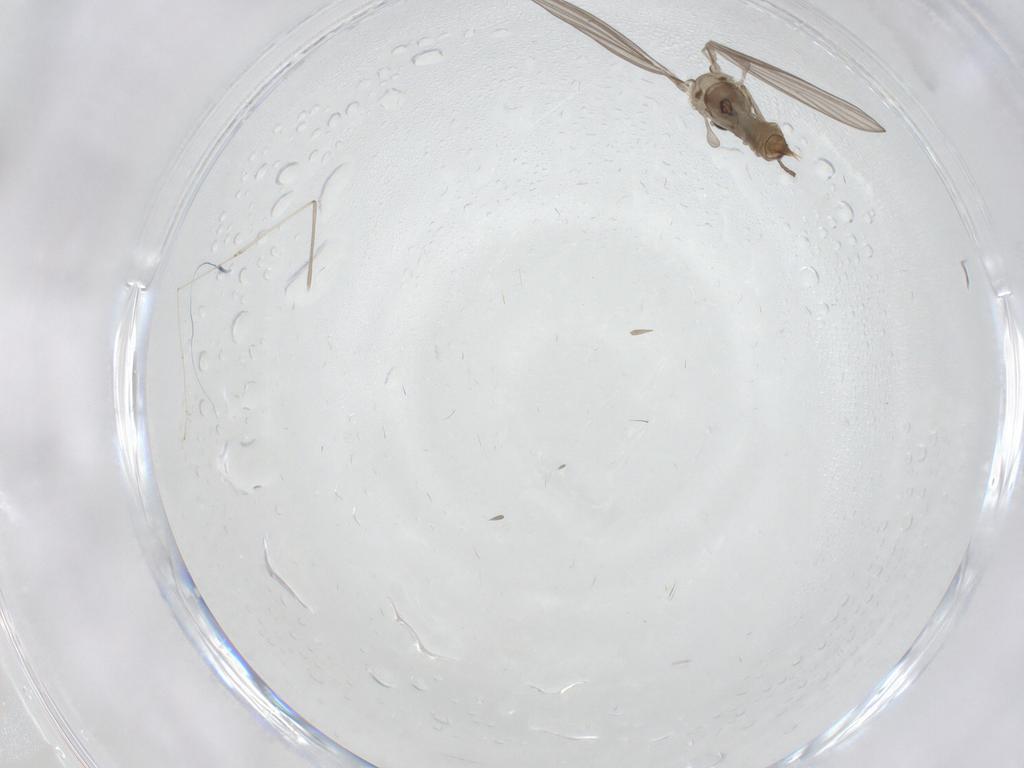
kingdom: Animalia
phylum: Arthropoda
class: Insecta
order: Diptera
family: Psychodidae
